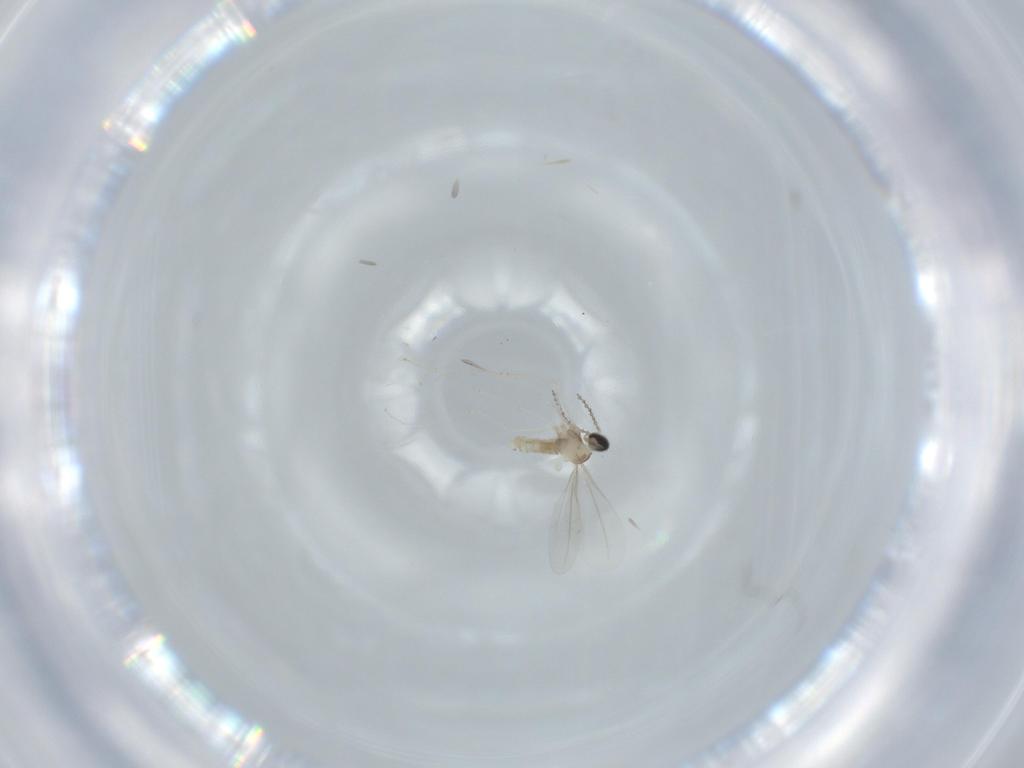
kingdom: Animalia
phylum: Arthropoda
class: Insecta
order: Diptera
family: Cecidomyiidae
